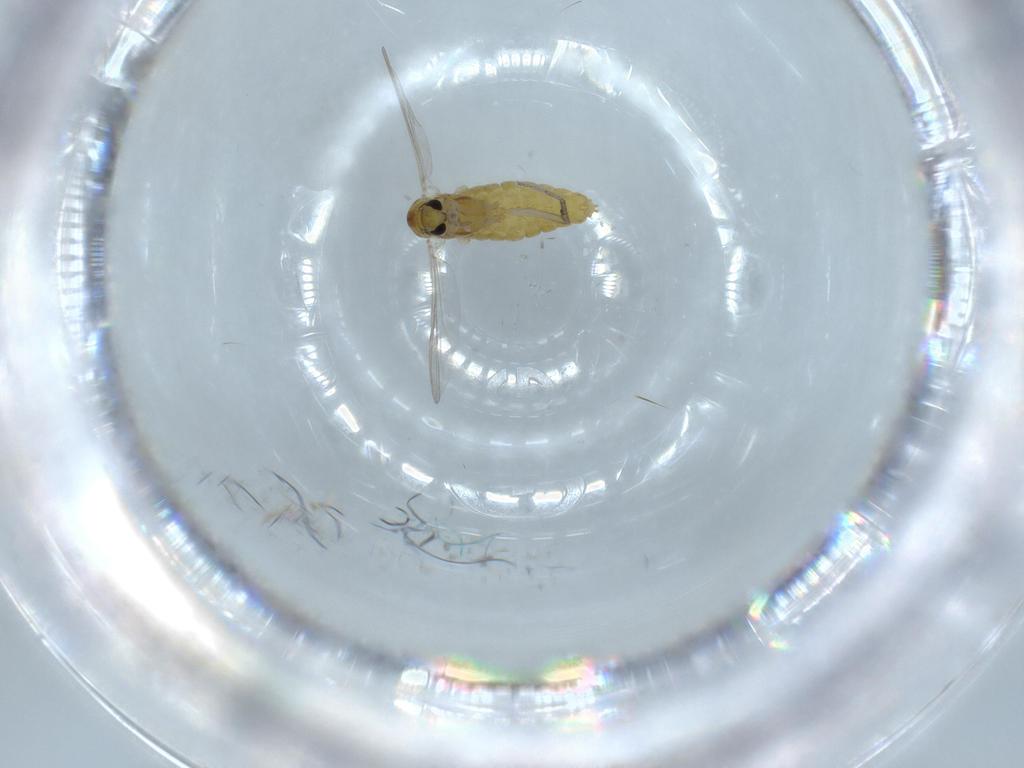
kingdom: Animalia
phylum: Arthropoda
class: Insecta
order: Diptera
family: Chironomidae
